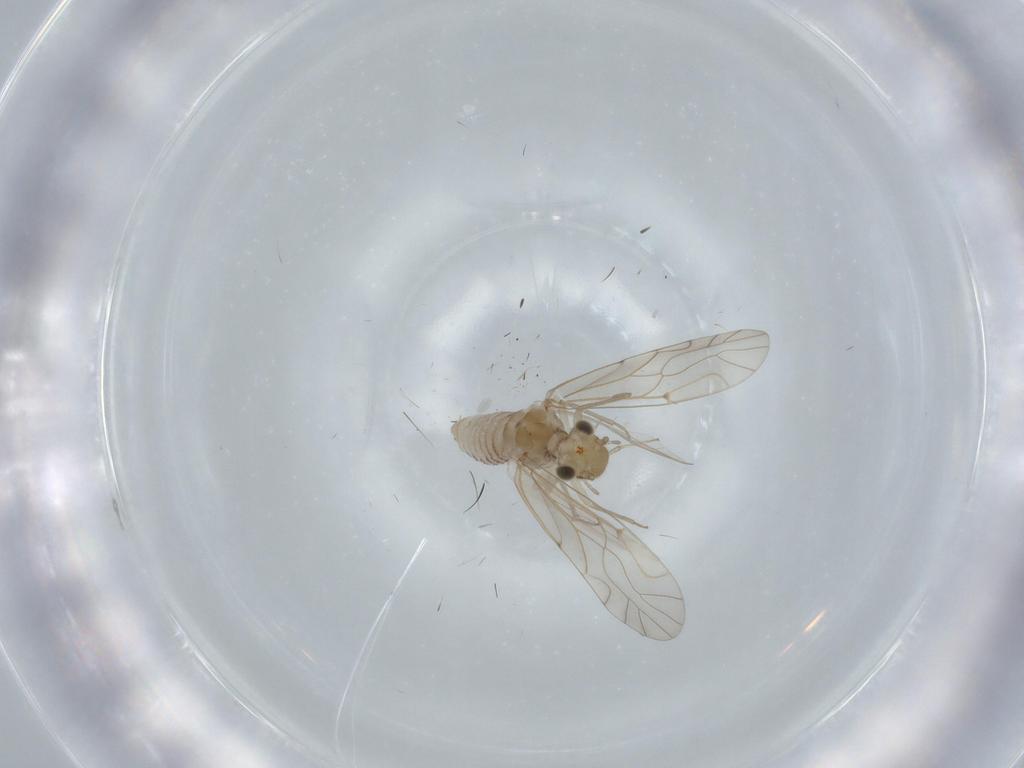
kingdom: Animalia
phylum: Arthropoda
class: Insecta
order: Psocodea
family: Lachesillidae
